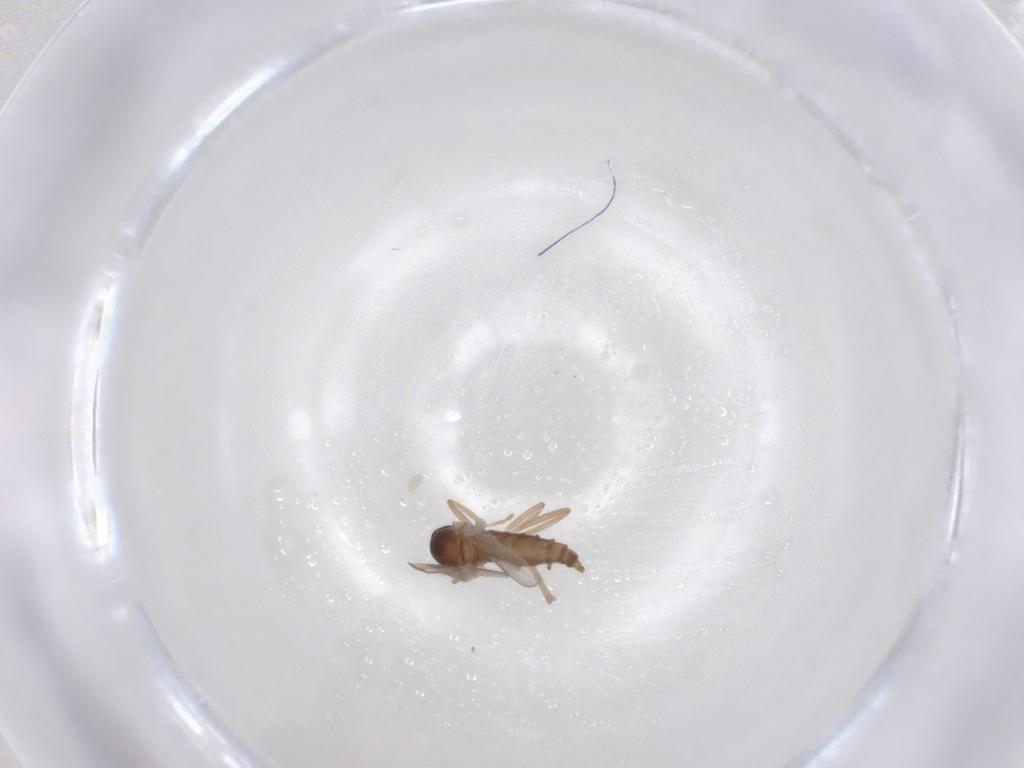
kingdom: Animalia
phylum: Arthropoda
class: Insecta
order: Diptera
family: Cecidomyiidae
